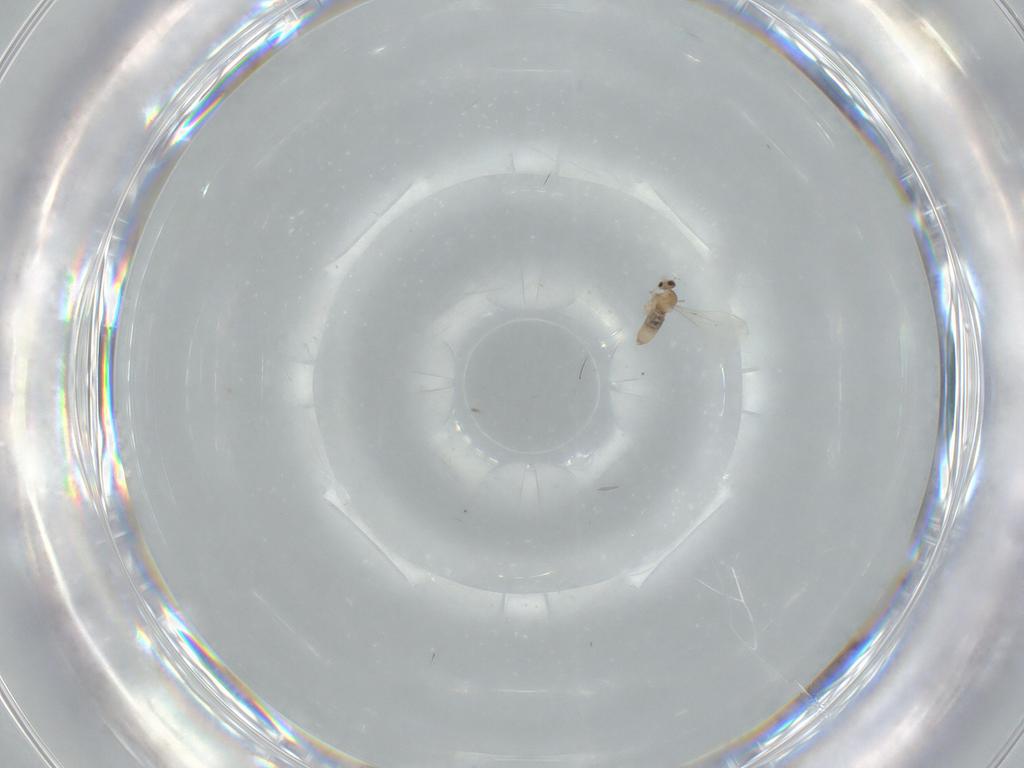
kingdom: Animalia
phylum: Arthropoda
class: Insecta
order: Diptera
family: Cecidomyiidae
